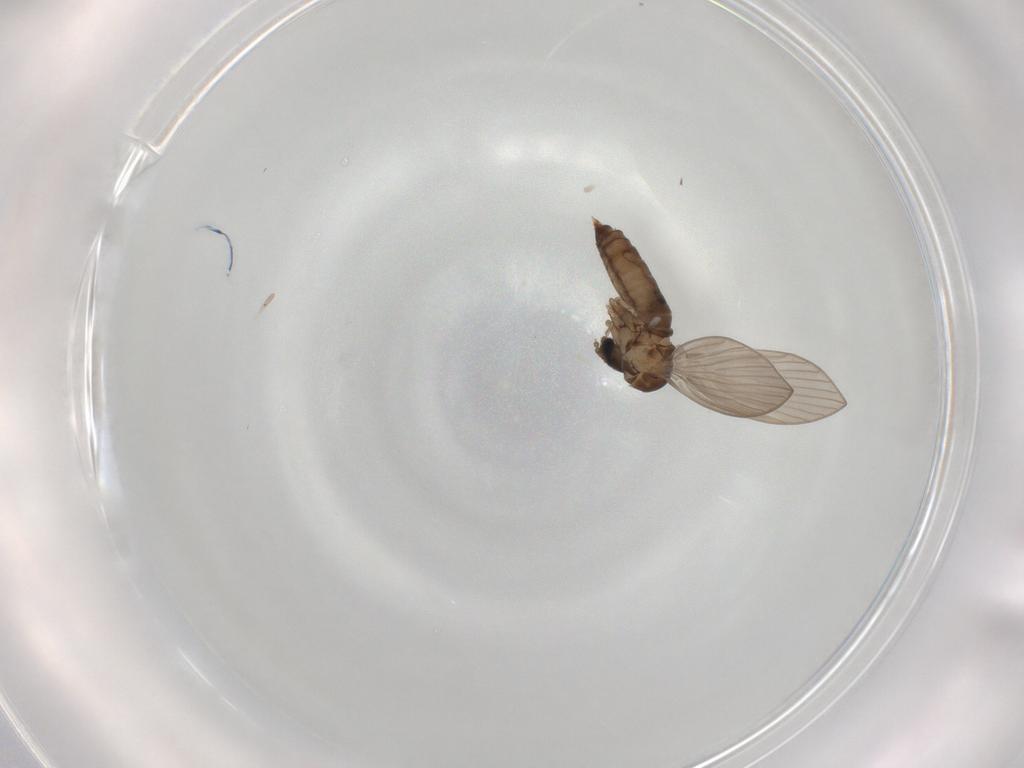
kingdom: Animalia
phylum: Arthropoda
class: Insecta
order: Diptera
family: Psychodidae
